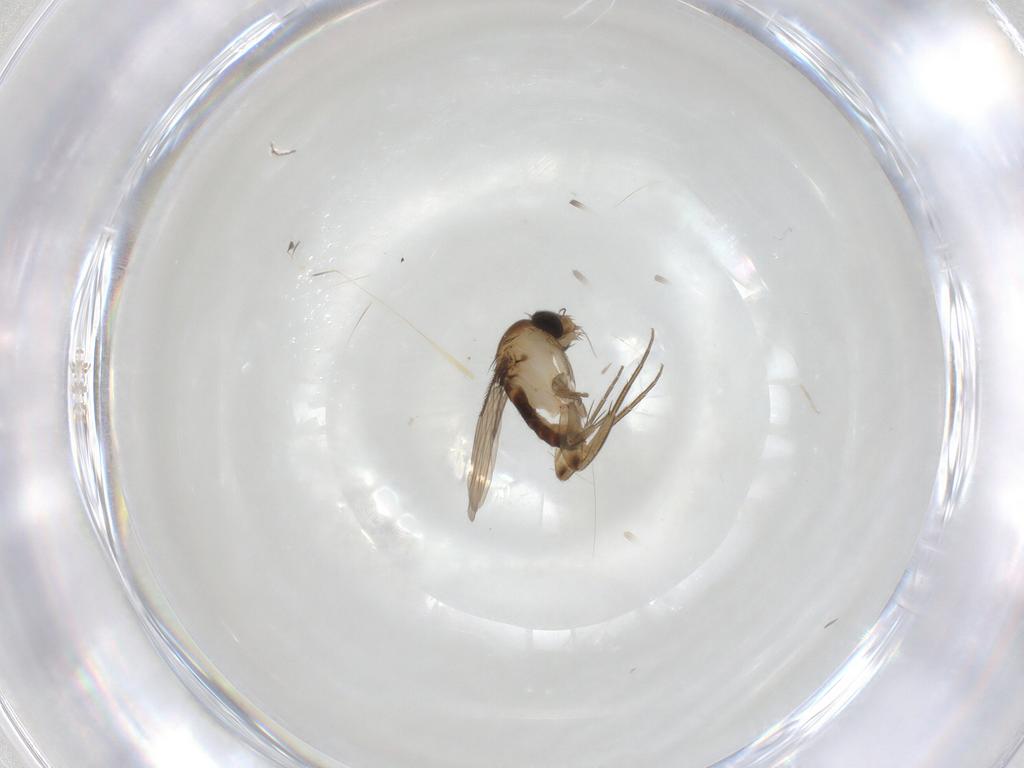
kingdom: Animalia
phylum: Arthropoda
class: Insecta
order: Diptera
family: Phoridae
